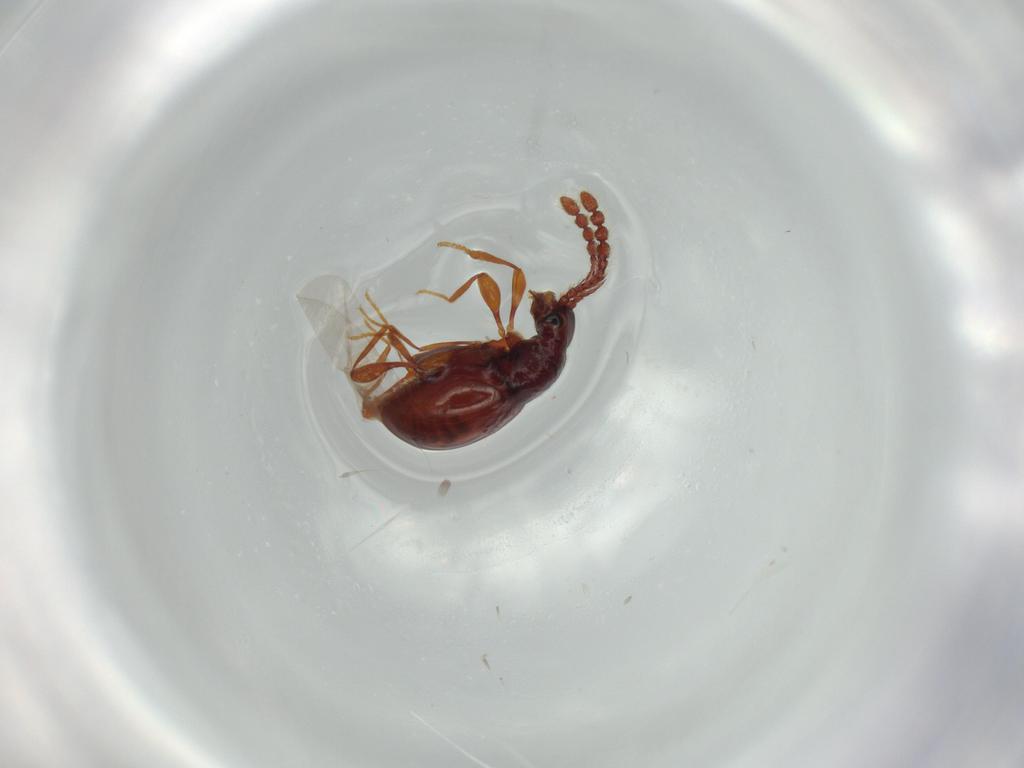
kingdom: Animalia
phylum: Arthropoda
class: Insecta
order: Coleoptera
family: Staphylinidae
